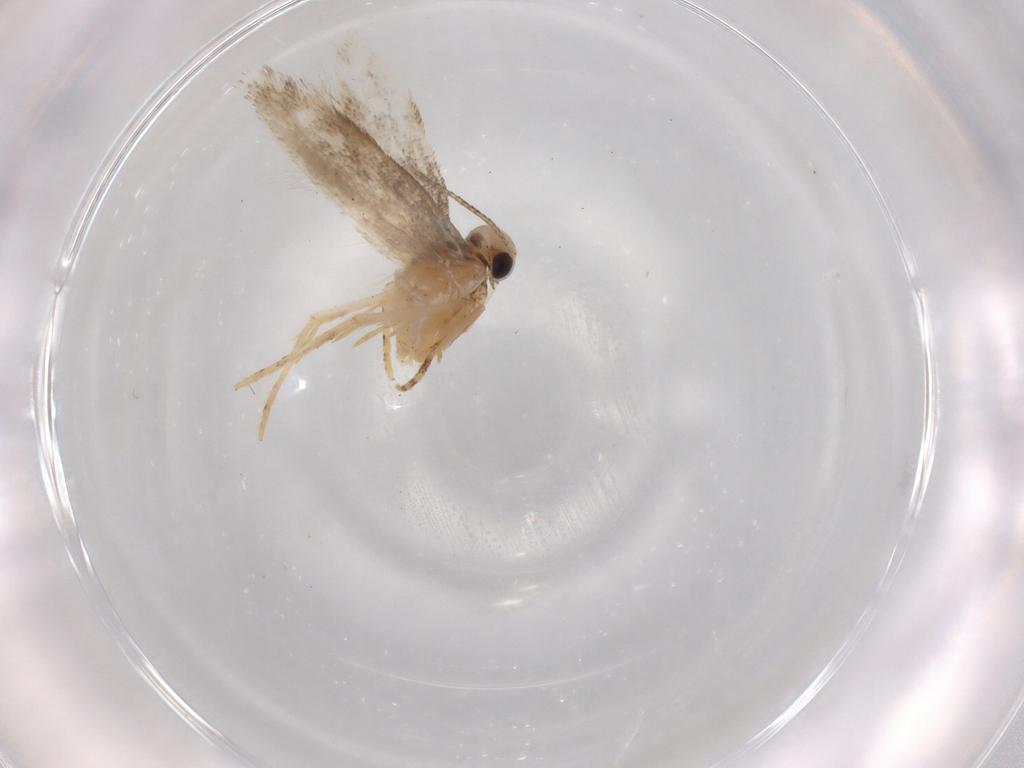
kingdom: Animalia
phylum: Arthropoda
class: Insecta
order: Lepidoptera
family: Gelechiidae
